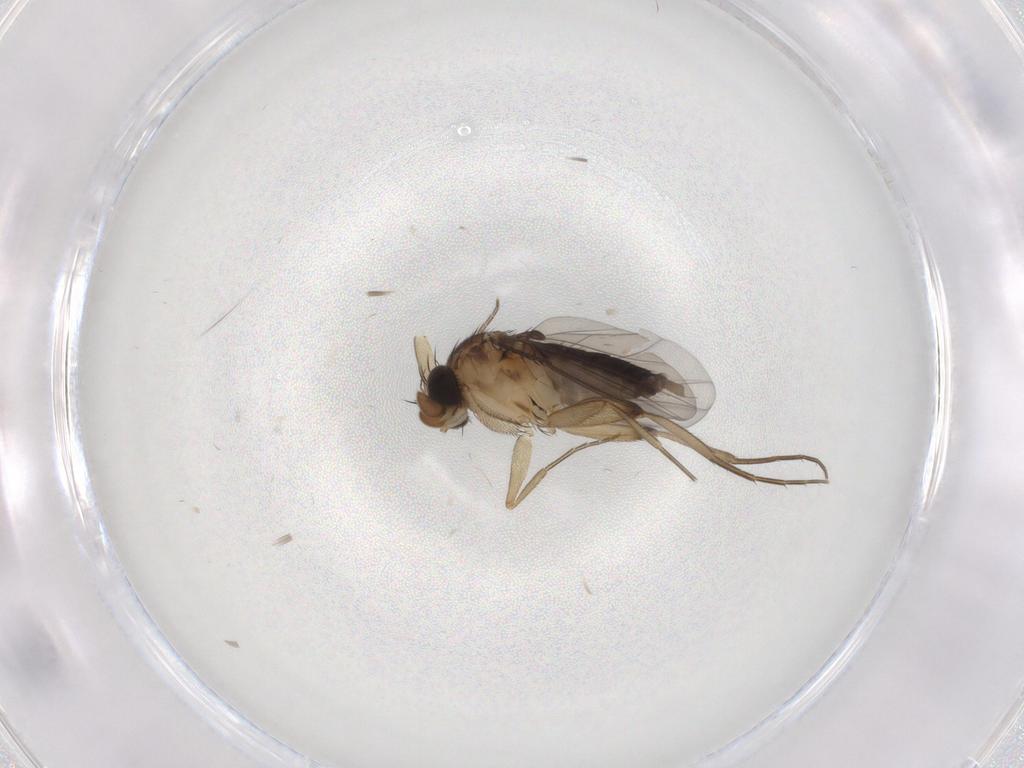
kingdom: Animalia
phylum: Arthropoda
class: Insecta
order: Diptera
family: Phoridae
